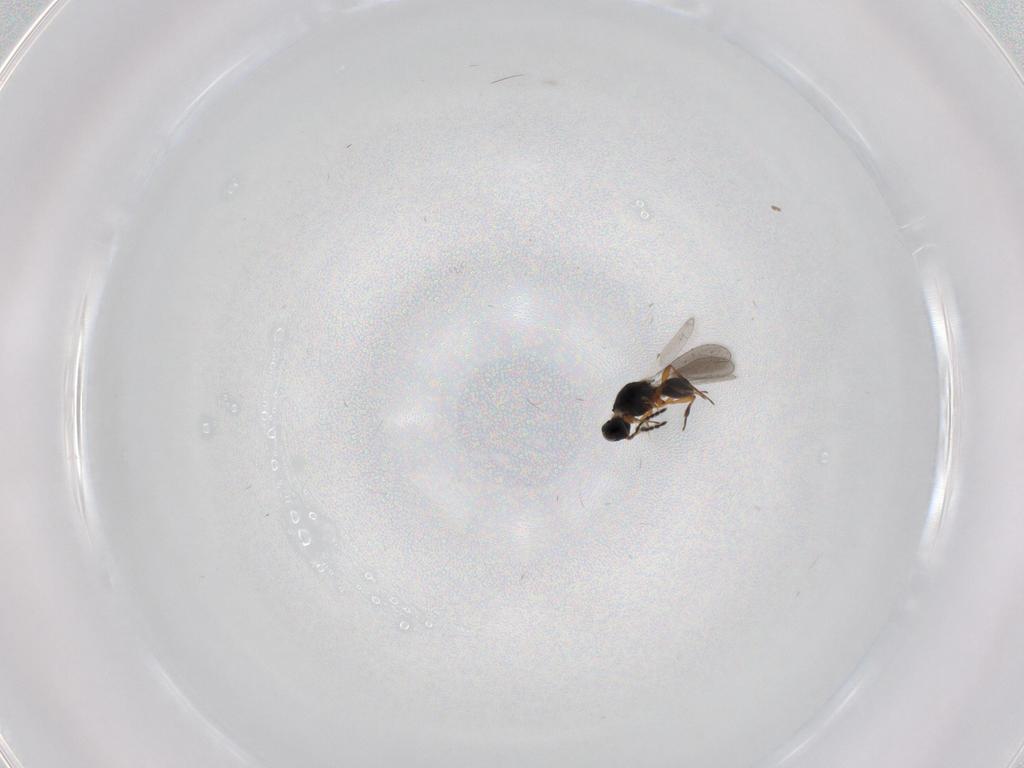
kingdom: Animalia
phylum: Arthropoda
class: Insecta
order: Hymenoptera
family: Platygastridae
